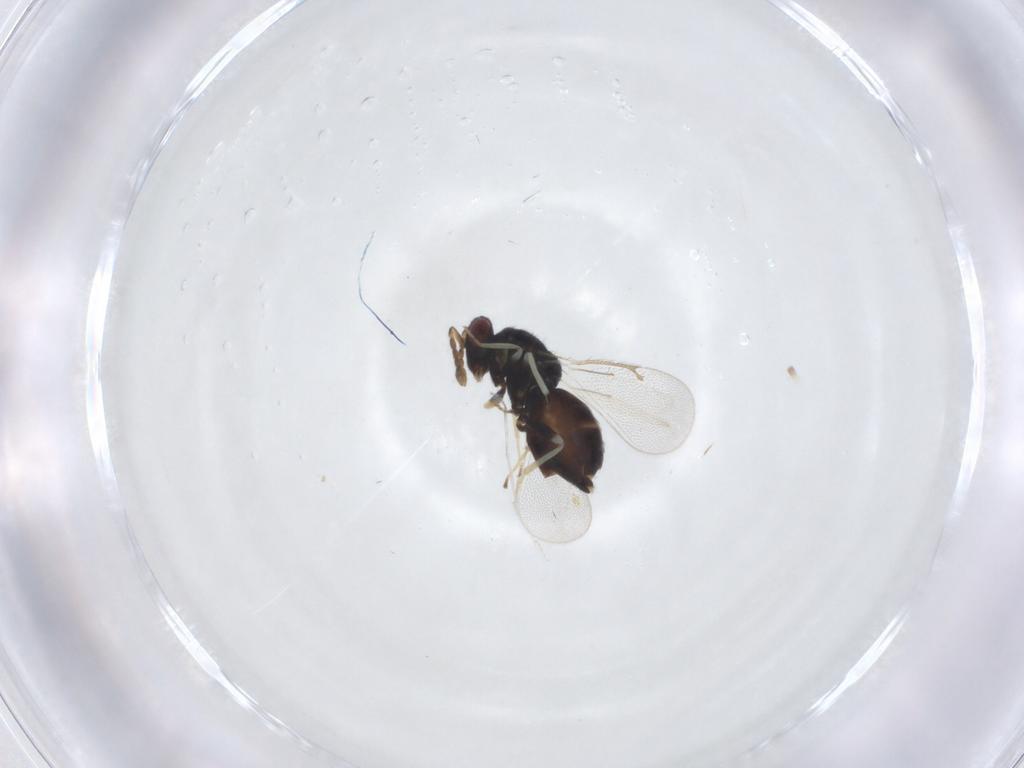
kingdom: Animalia
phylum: Arthropoda
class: Insecta
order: Hymenoptera
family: Eulophidae
